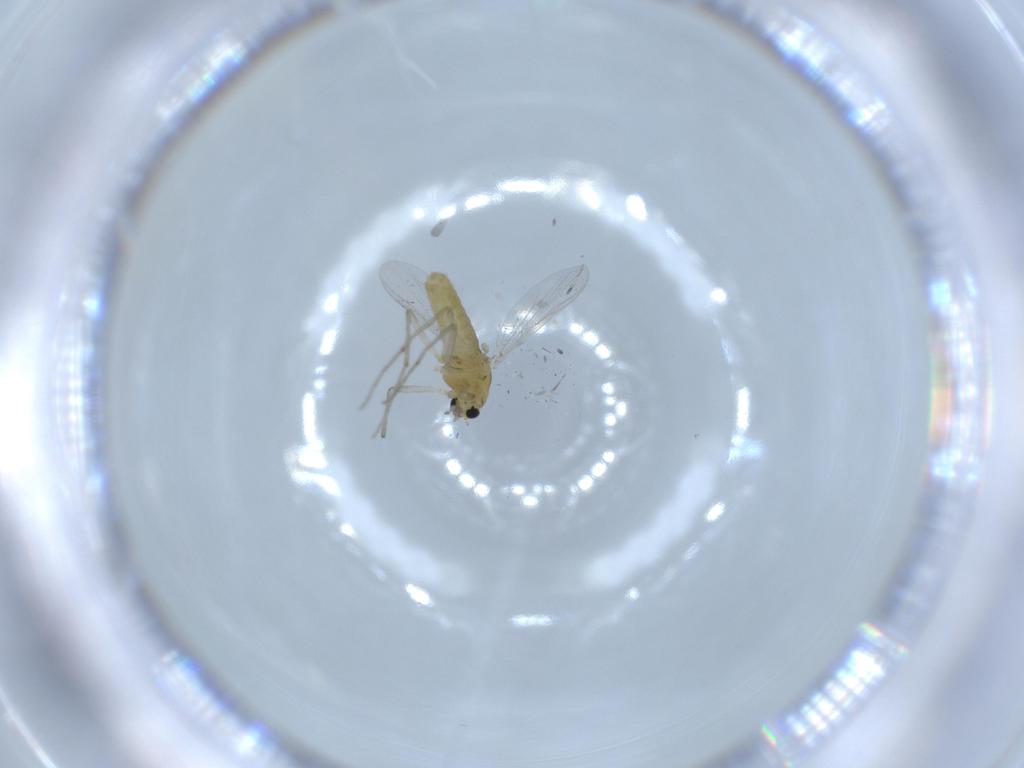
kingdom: Animalia
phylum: Arthropoda
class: Insecta
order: Diptera
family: Chironomidae
